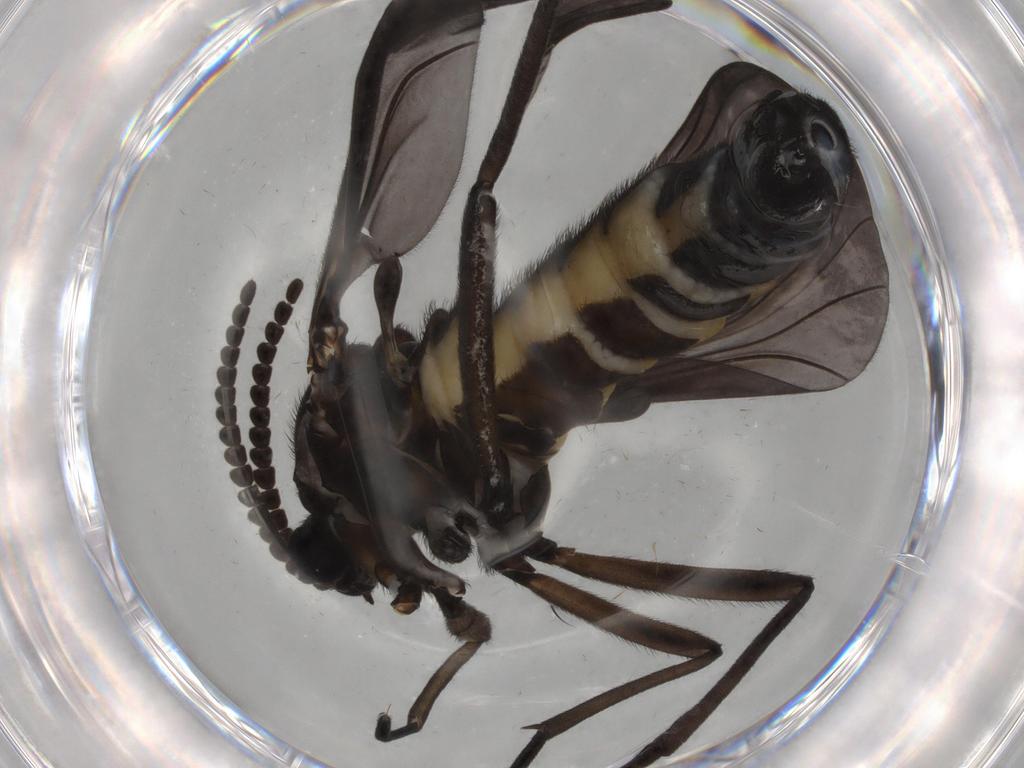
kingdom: Animalia
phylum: Arthropoda
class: Insecta
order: Diptera
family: Sciaridae
